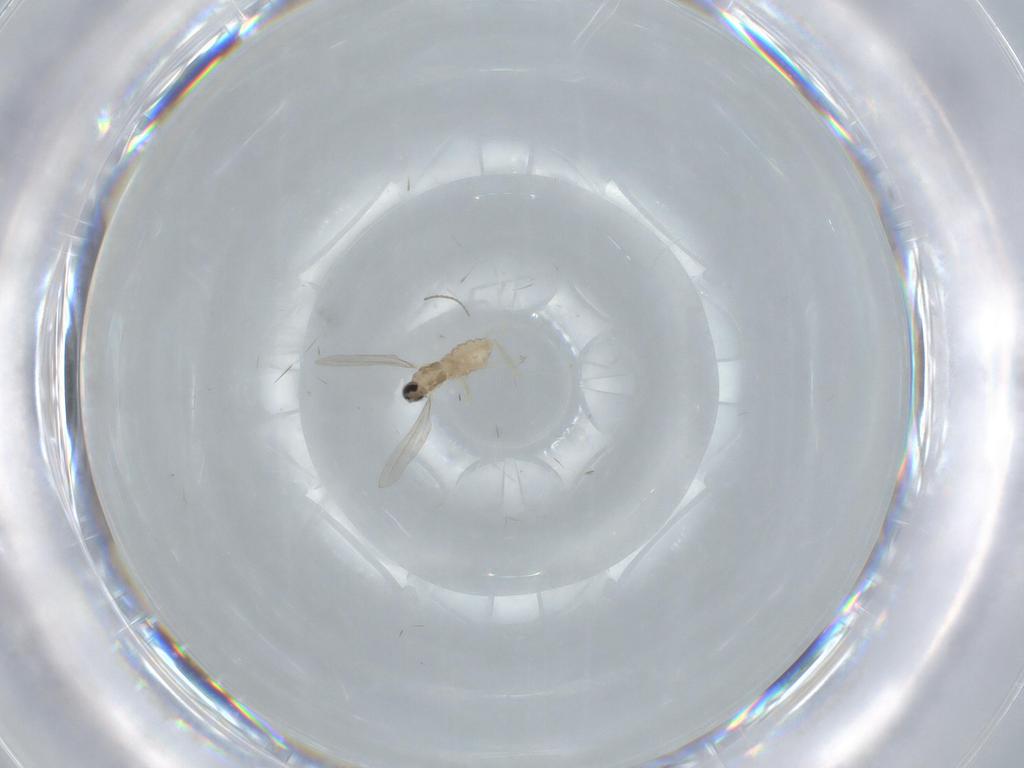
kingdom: Animalia
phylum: Arthropoda
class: Insecta
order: Diptera
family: Cecidomyiidae
